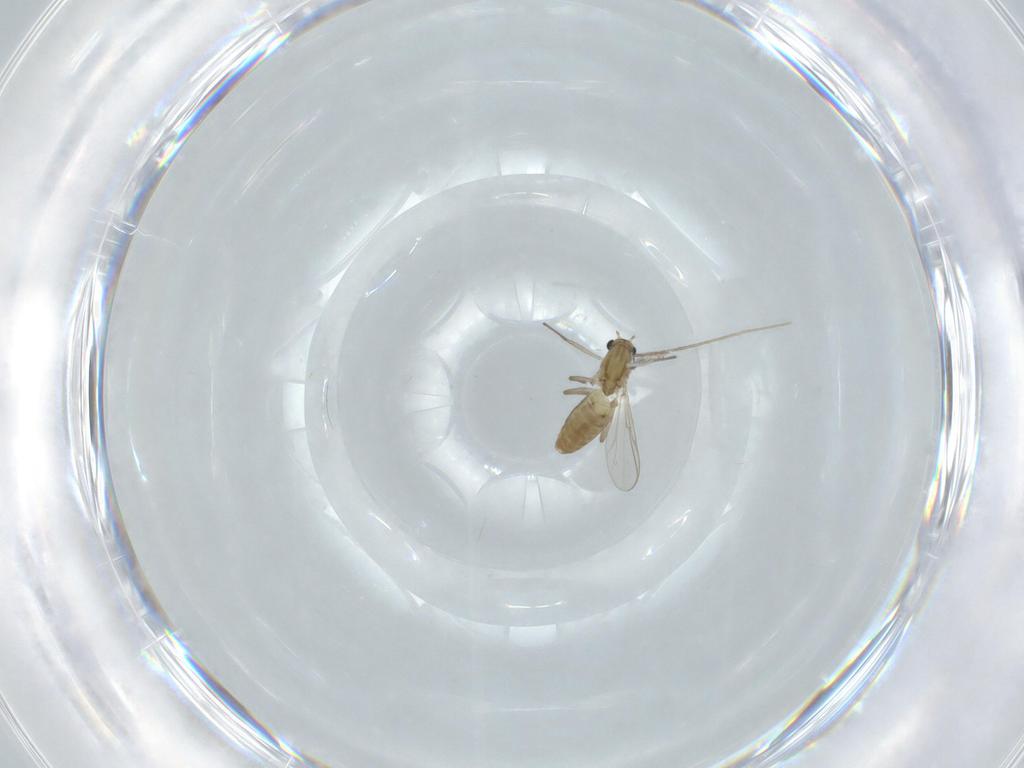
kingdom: Animalia
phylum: Arthropoda
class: Insecta
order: Diptera
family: Chironomidae
